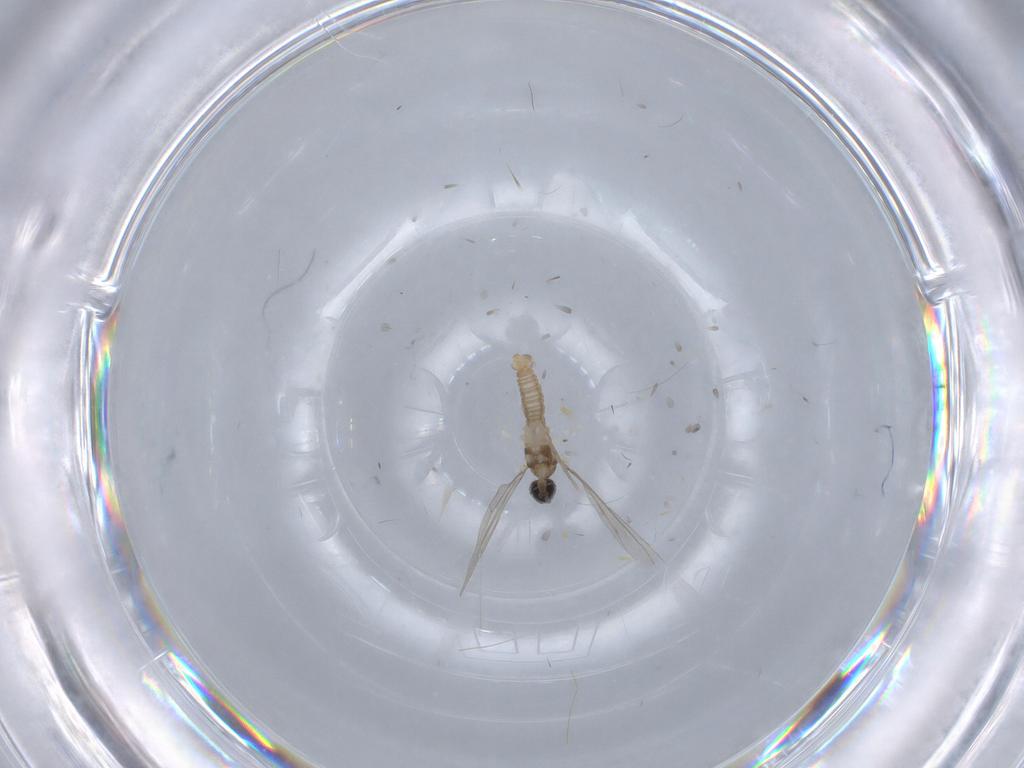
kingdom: Animalia
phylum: Arthropoda
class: Insecta
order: Diptera
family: Cecidomyiidae
